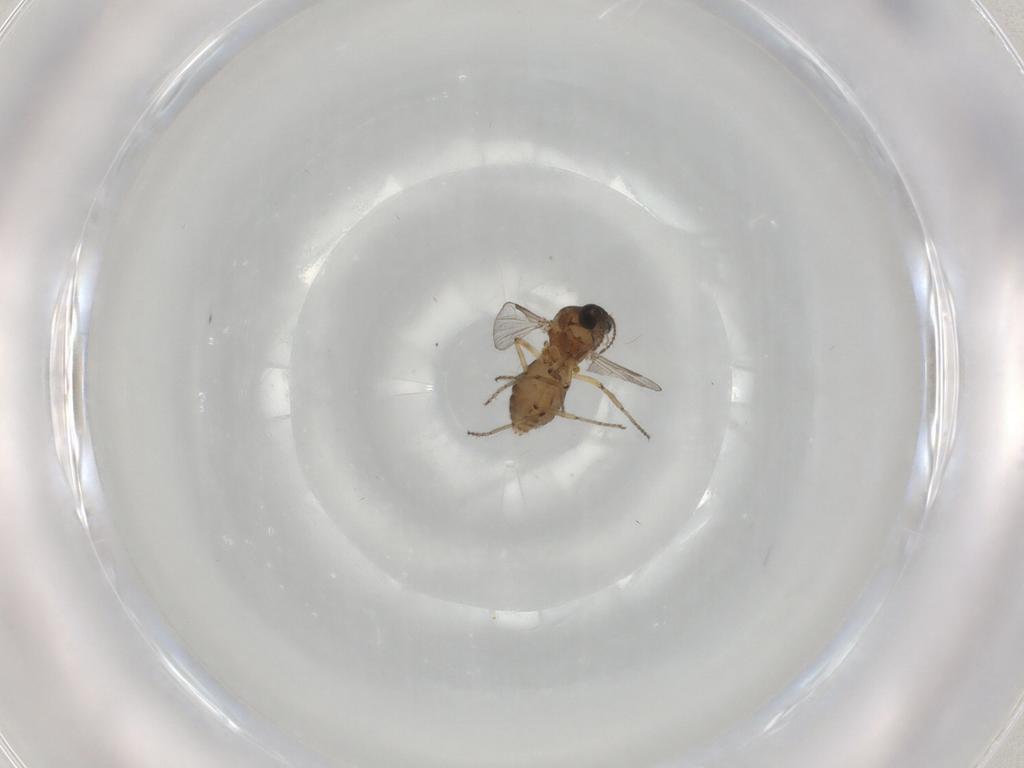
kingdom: Animalia
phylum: Arthropoda
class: Insecta
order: Diptera
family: Ceratopogonidae
